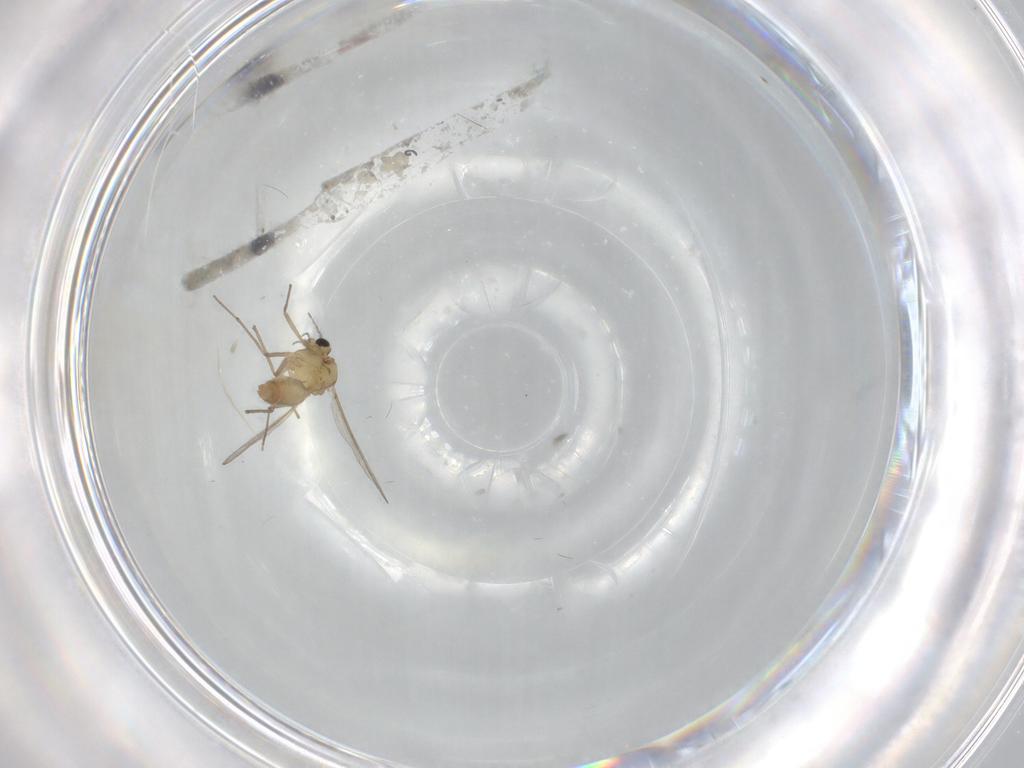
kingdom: Animalia
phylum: Arthropoda
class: Insecta
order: Diptera
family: Chironomidae
